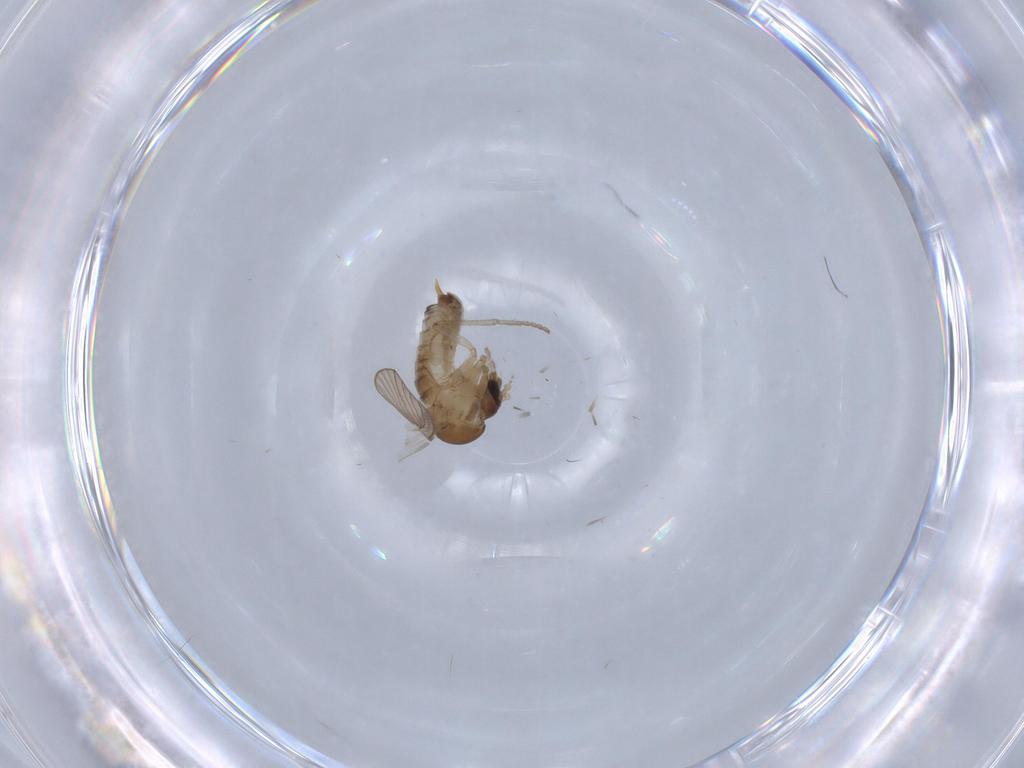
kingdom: Animalia
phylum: Arthropoda
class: Insecta
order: Diptera
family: Psychodidae
